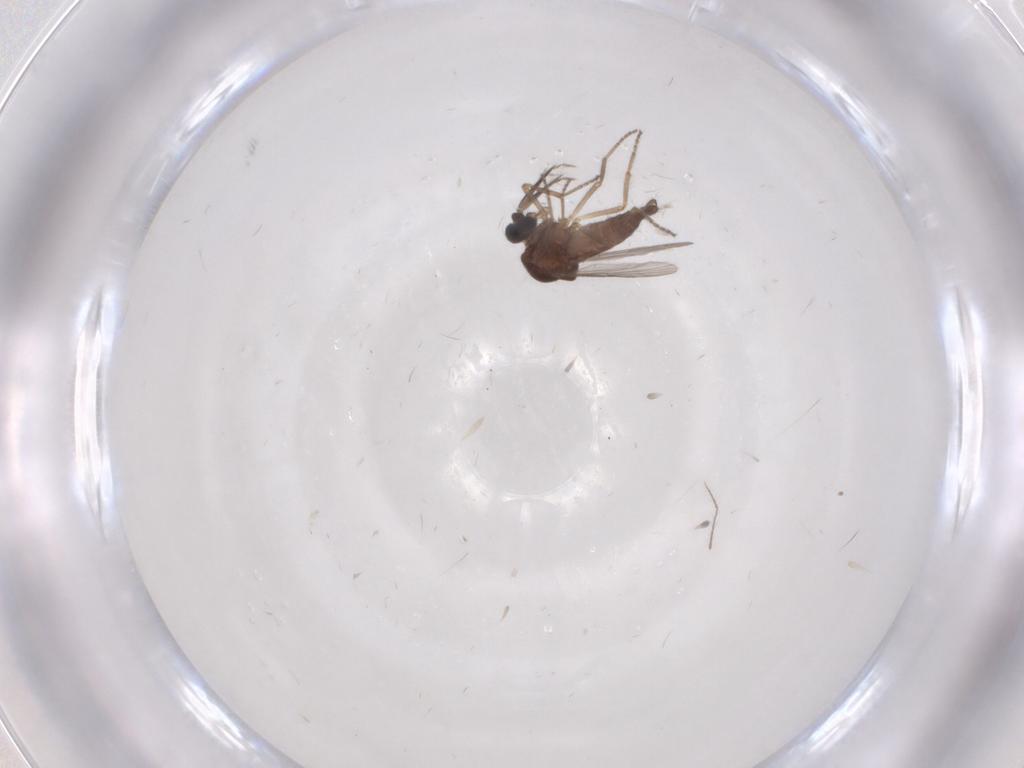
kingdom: Animalia
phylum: Arthropoda
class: Insecta
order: Diptera
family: Ceratopogonidae
